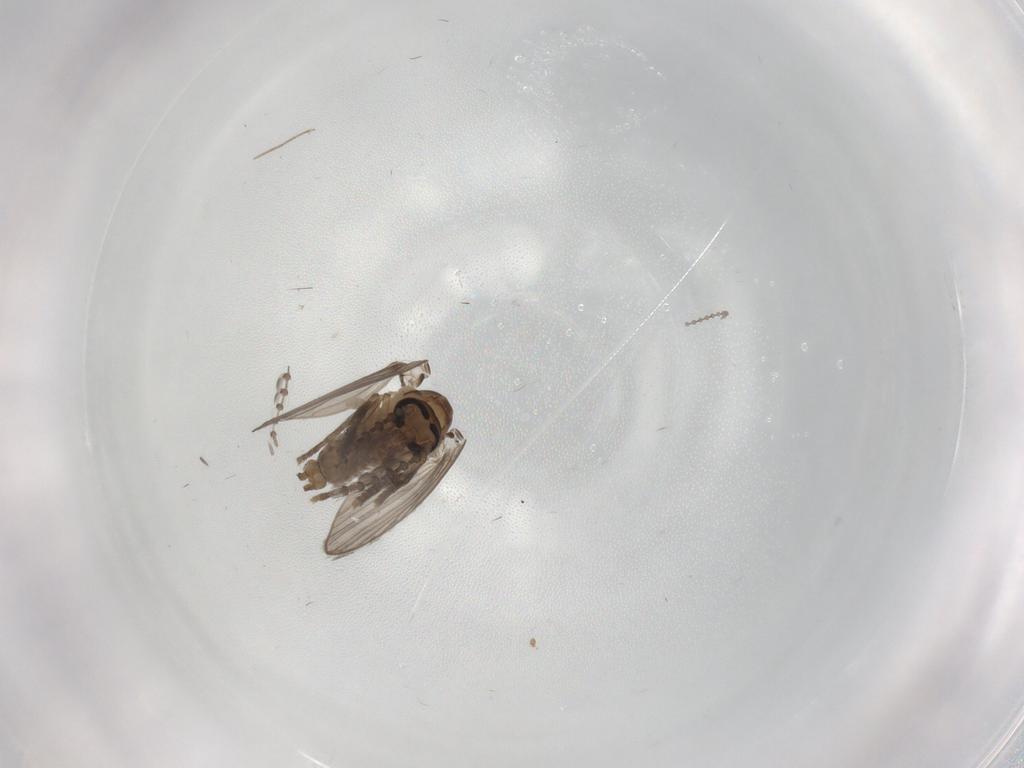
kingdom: Animalia
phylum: Arthropoda
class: Insecta
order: Diptera
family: Psychodidae
